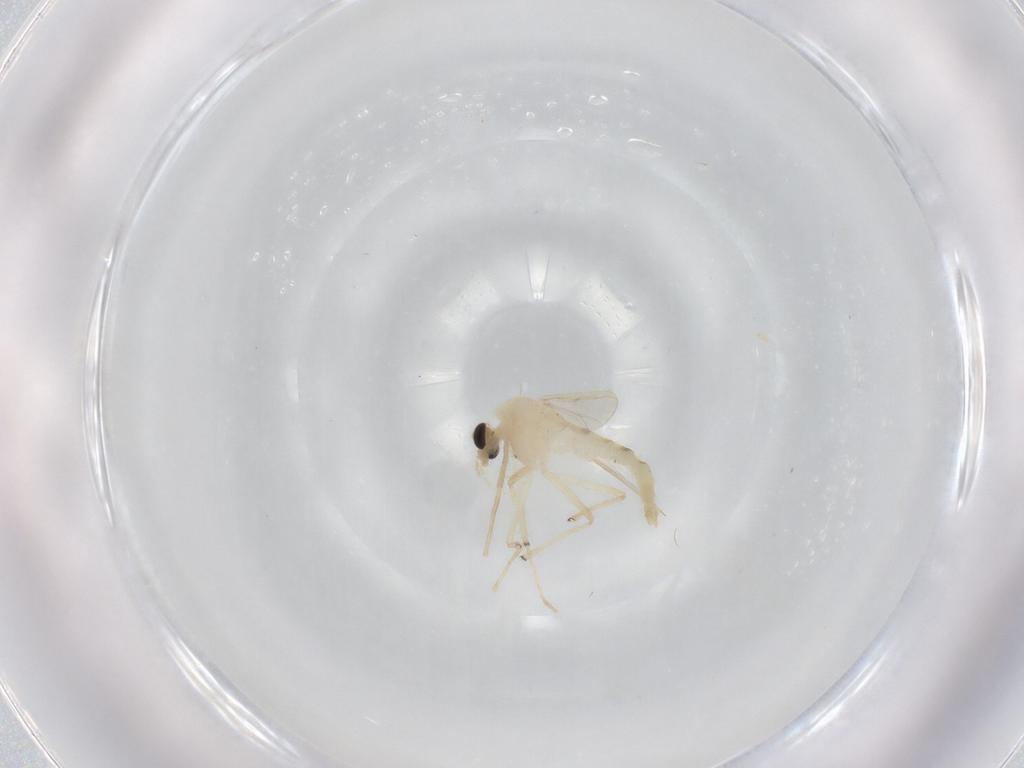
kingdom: Animalia
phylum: Arthropoda
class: Insecta
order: Diptera
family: Chironomidae
